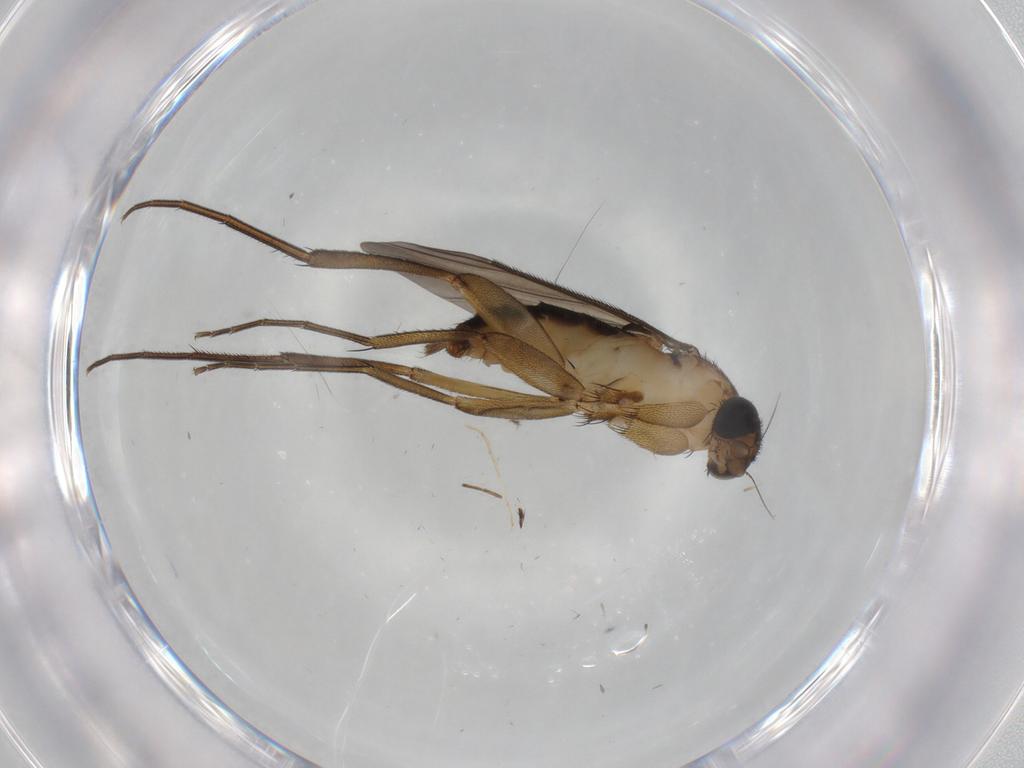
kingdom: Animalia
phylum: Arthropoda
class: Insecta
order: Diptera
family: Phoridae
